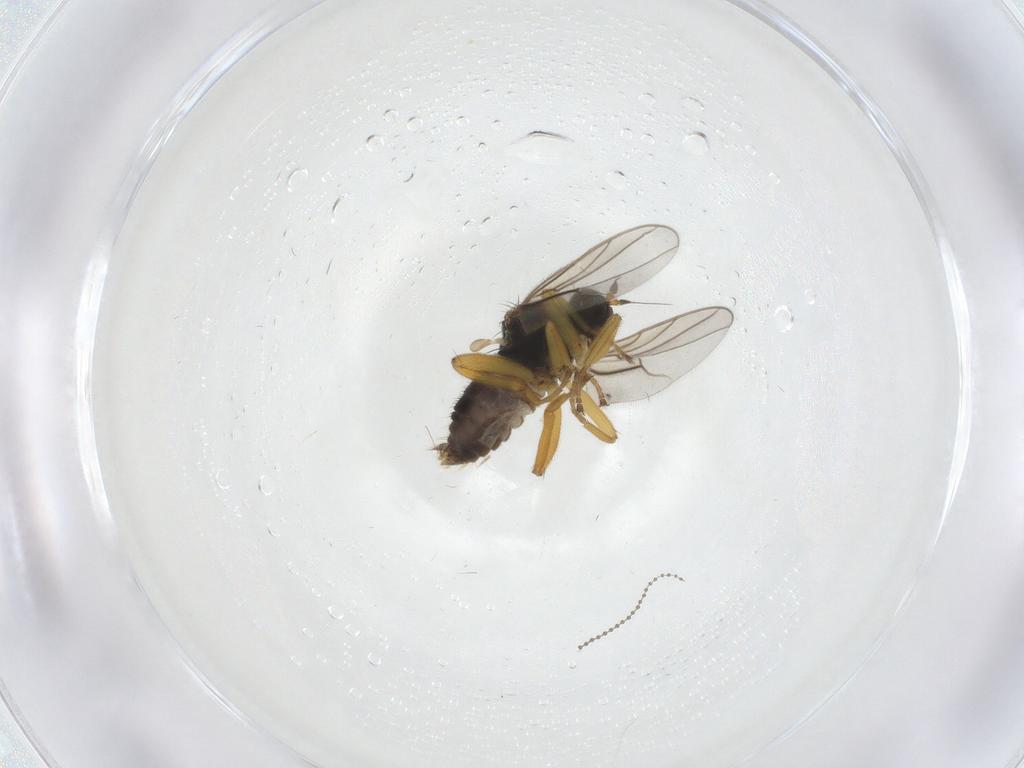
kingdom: Animalia
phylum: Arthropoda
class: Insecta
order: Diptera
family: Hybotidae
